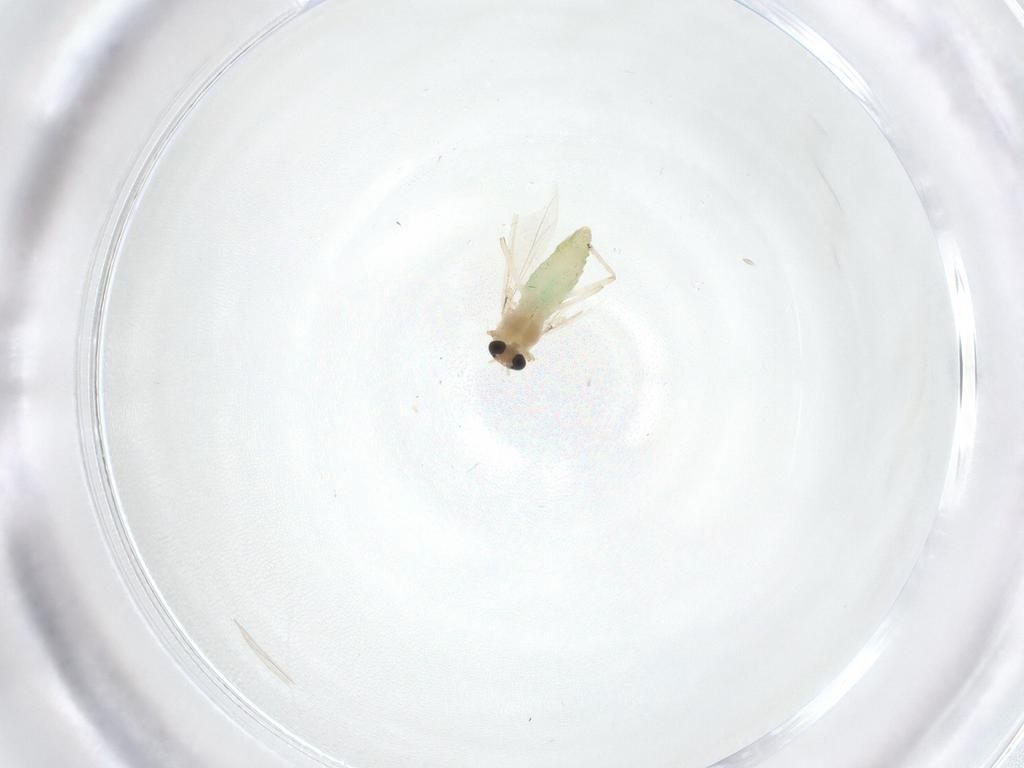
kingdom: Animalia
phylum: Arthropoda
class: Insecta
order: Diptera
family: Chironomidae
